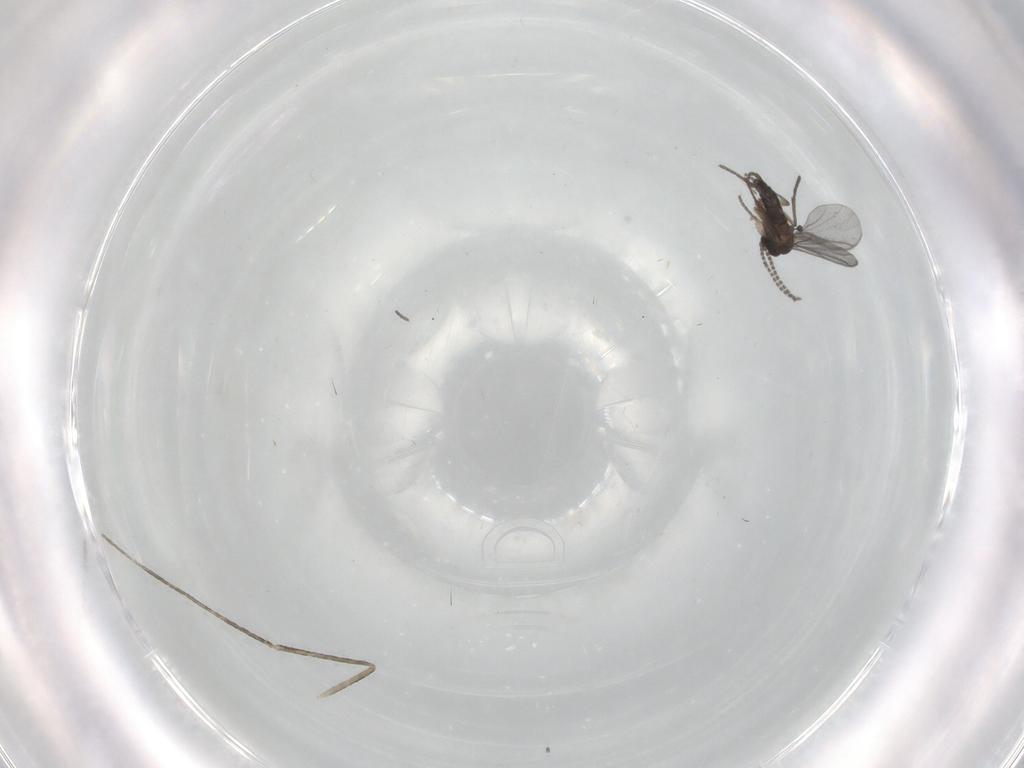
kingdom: Animalia
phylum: Arthropoda
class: Insecta
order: Diptera
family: Cecidomyiidae
